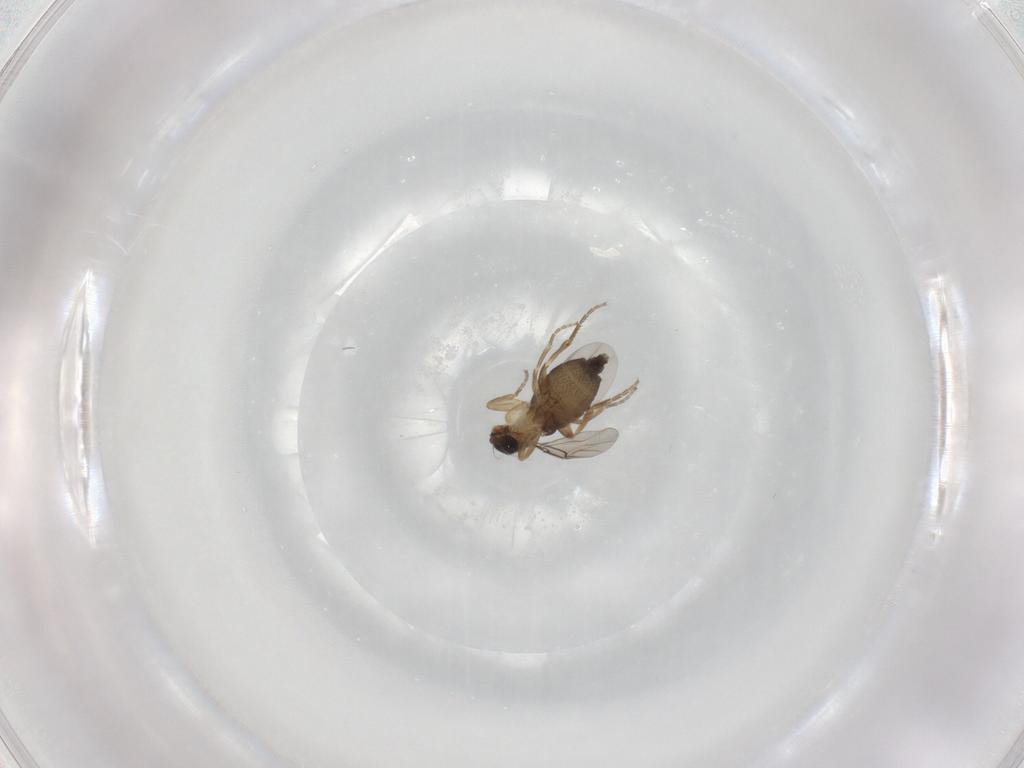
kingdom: Animalia
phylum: Arthropoda
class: Insecta
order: Diptera
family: Phoridae
